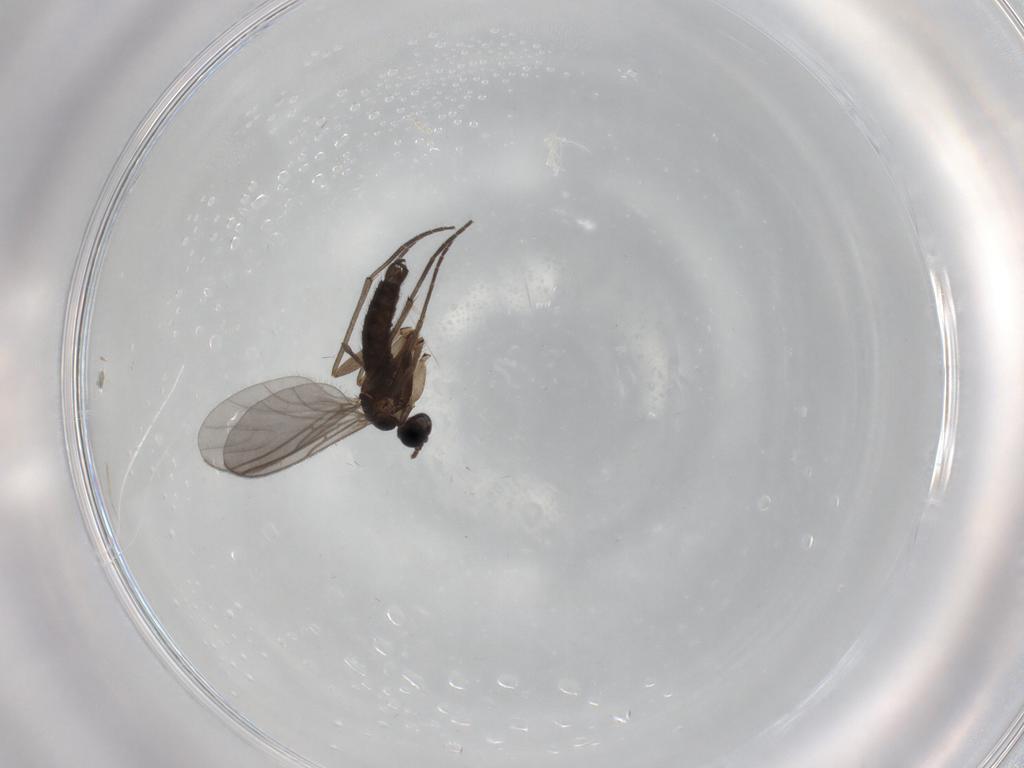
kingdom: Animalia
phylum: Arthropoda
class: Insecta
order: Diptera
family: Sciaridae
